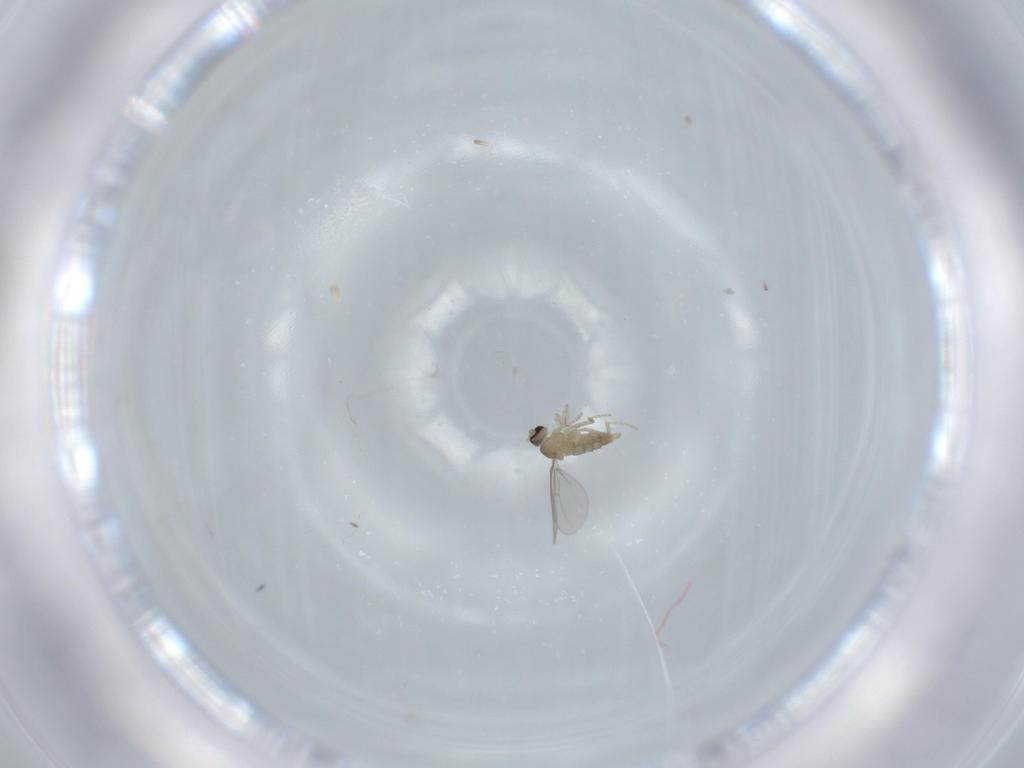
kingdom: Animalia
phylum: Arthropoda
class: Insecta
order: Diptera
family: Cecidomyiidae
